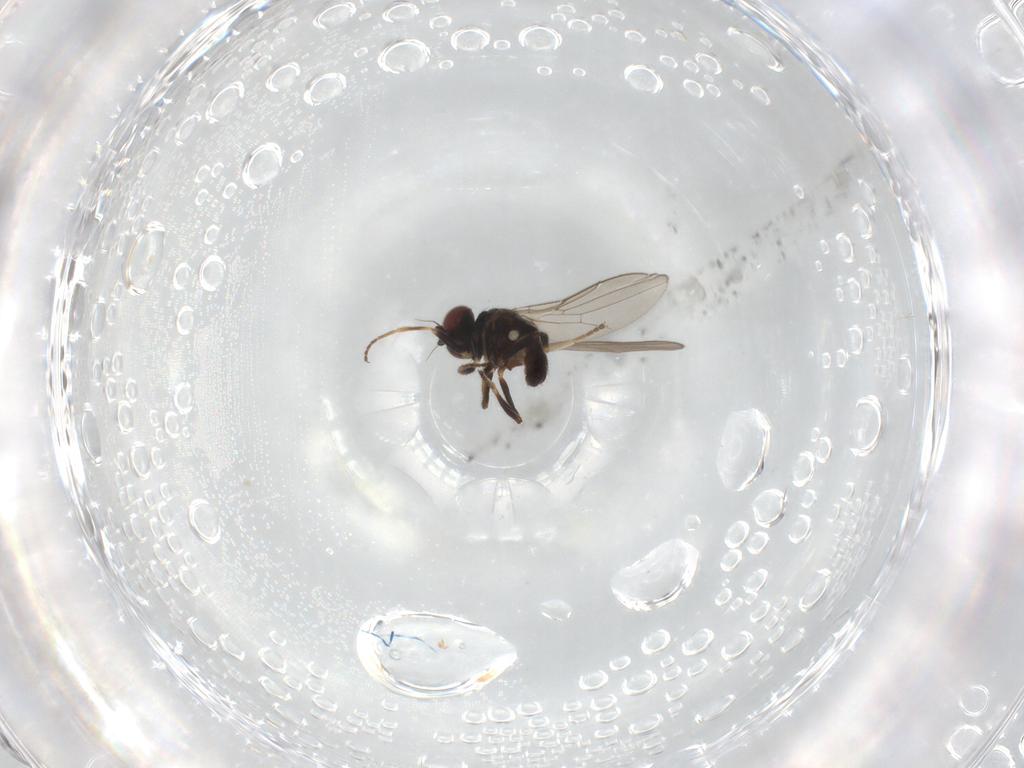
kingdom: Animalia
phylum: Arthropoda
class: Insecta
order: Diptera
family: Chloropidae
